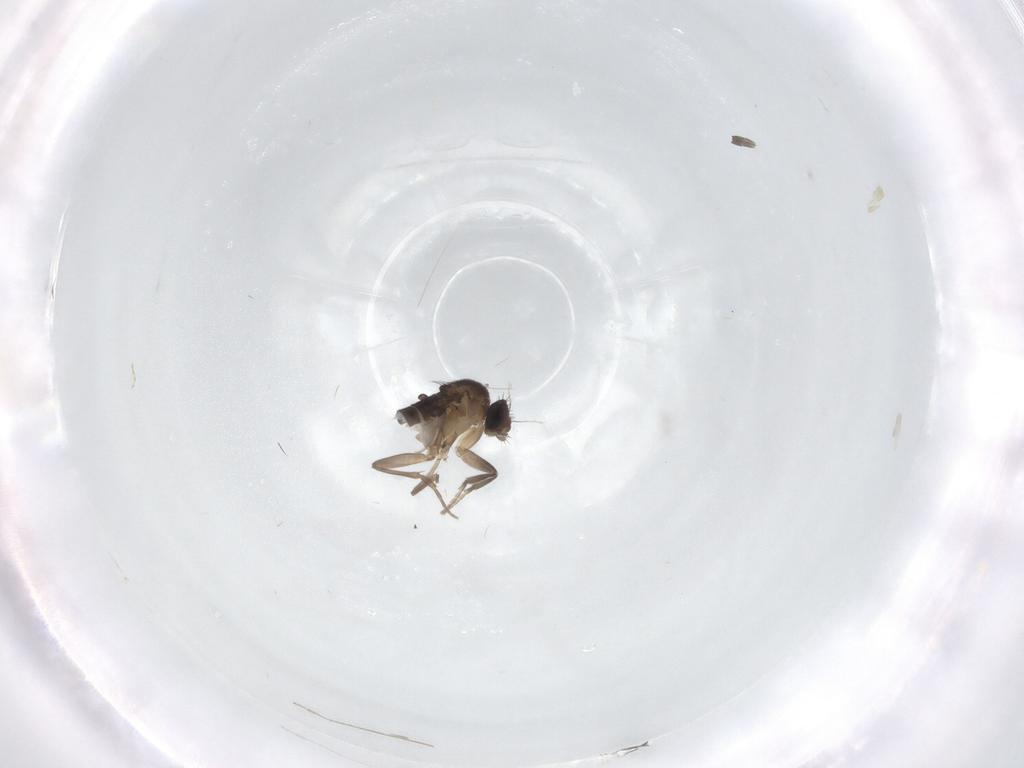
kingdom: Animalia
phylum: Arthropoda
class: Insecta
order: Diptera
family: Phoridae
